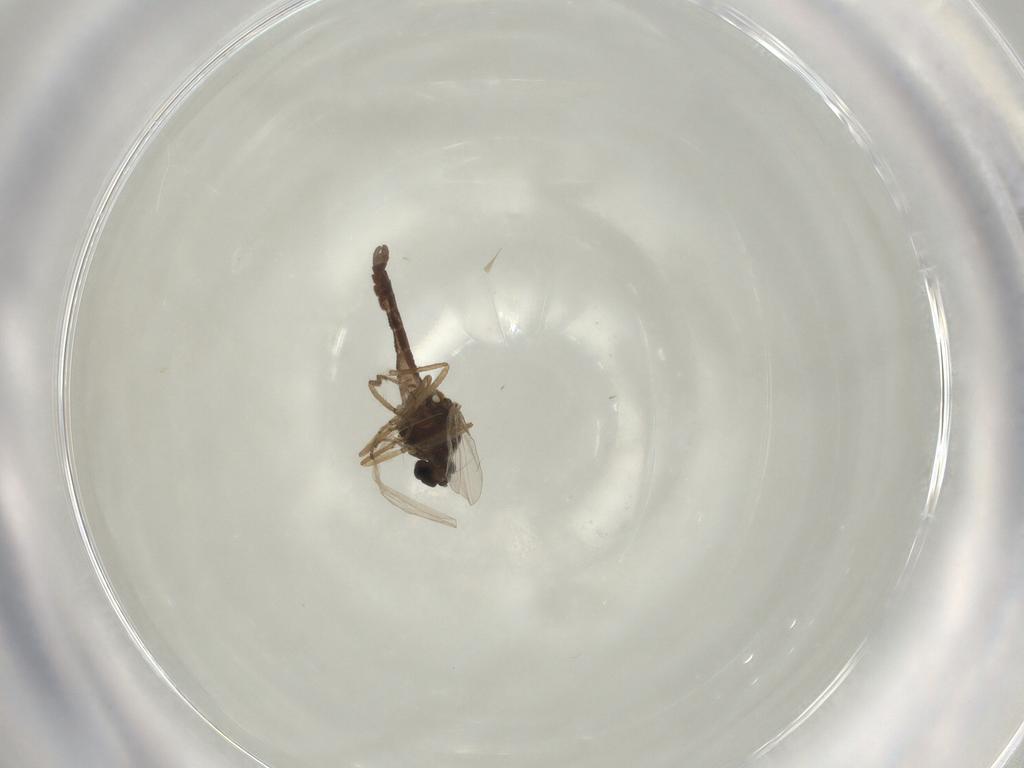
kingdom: Animalia
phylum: Arthropoda
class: Insecta
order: Diptera
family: Ceratopogonidae
